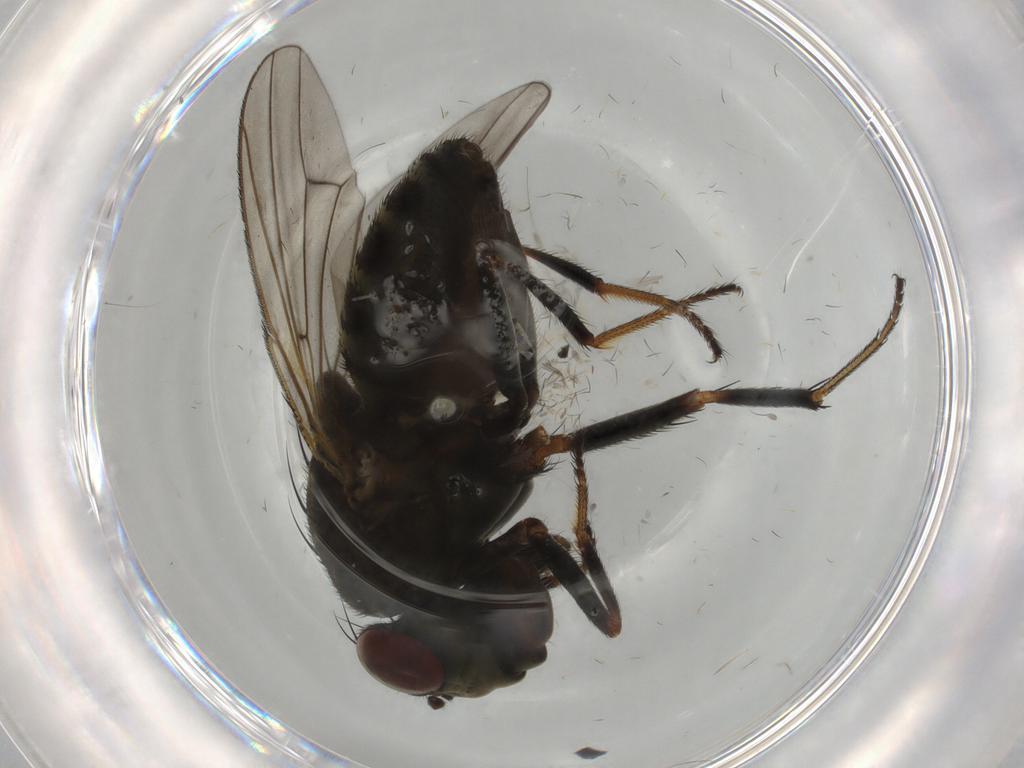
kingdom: Animalia
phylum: Arthropoda
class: Insecta
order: Diptera
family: Ephydridae
